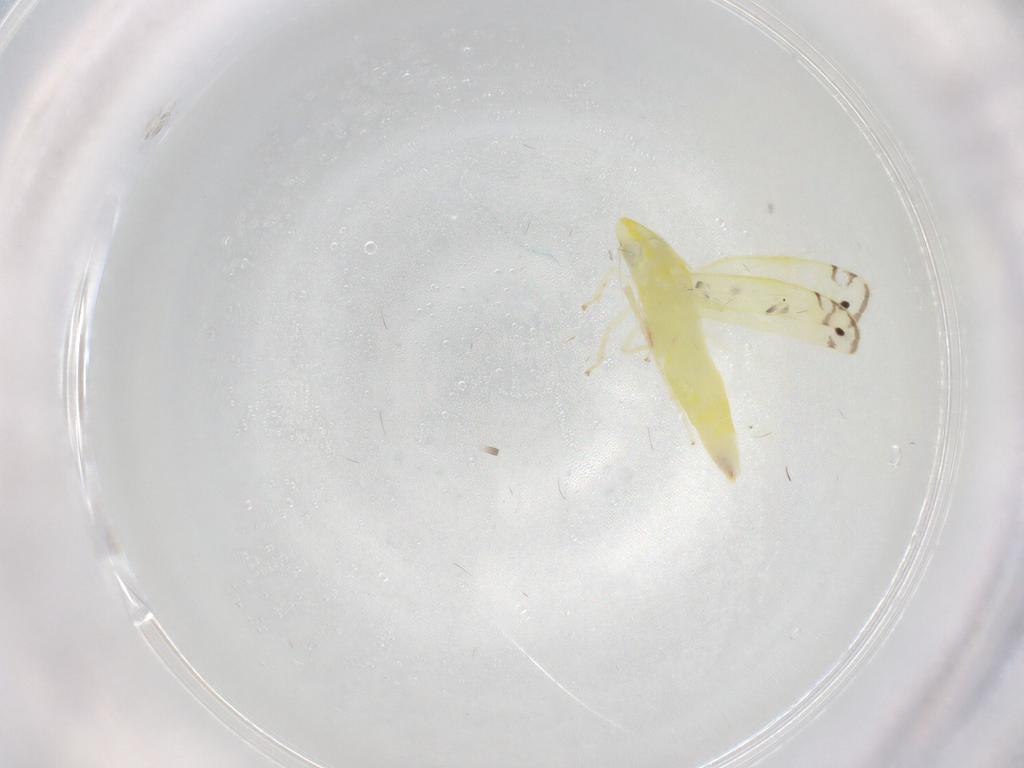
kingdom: Animalia
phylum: Arthropoda
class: Insecta
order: Hemiptera
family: Cicadellidae
